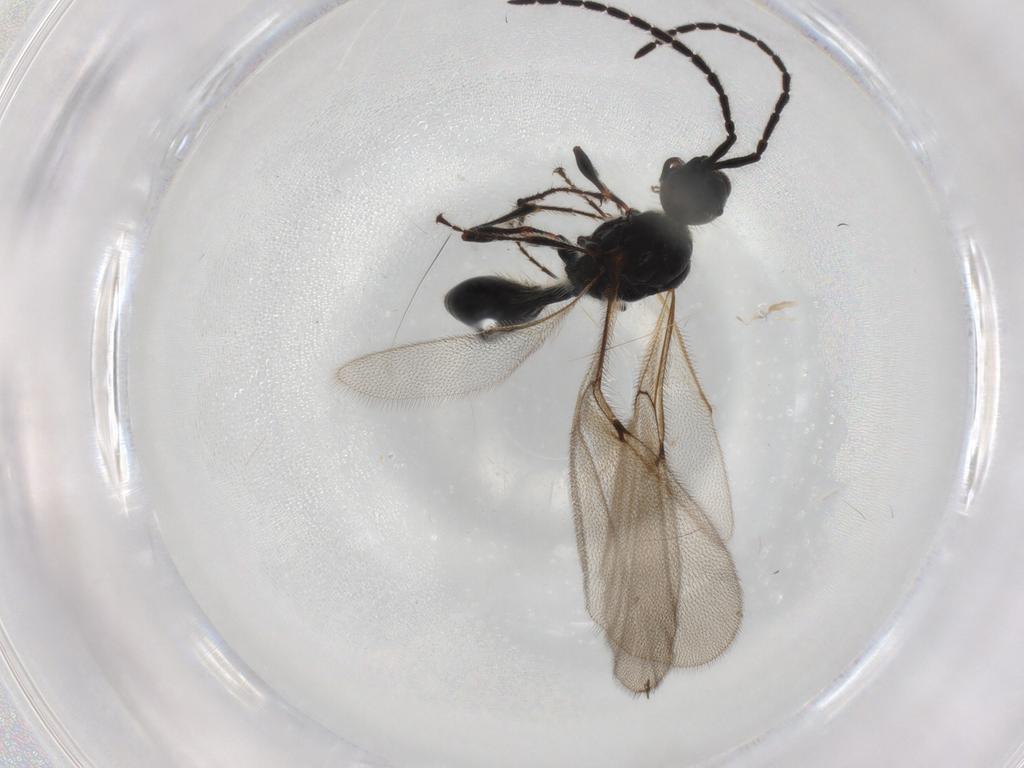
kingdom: Animalia
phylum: Arthropoda
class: Insecta
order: Hymenoptera
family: Diapriidae
